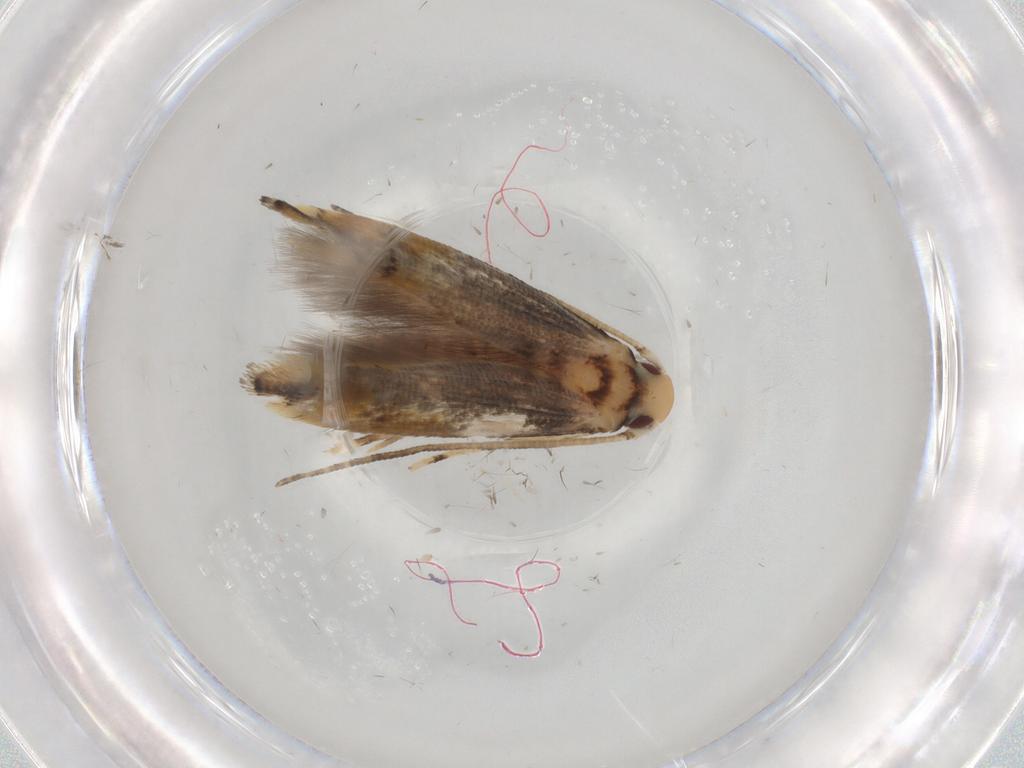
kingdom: Animalia
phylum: Arthropoda
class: Insecta
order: Lepidoptera
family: Momphidae
